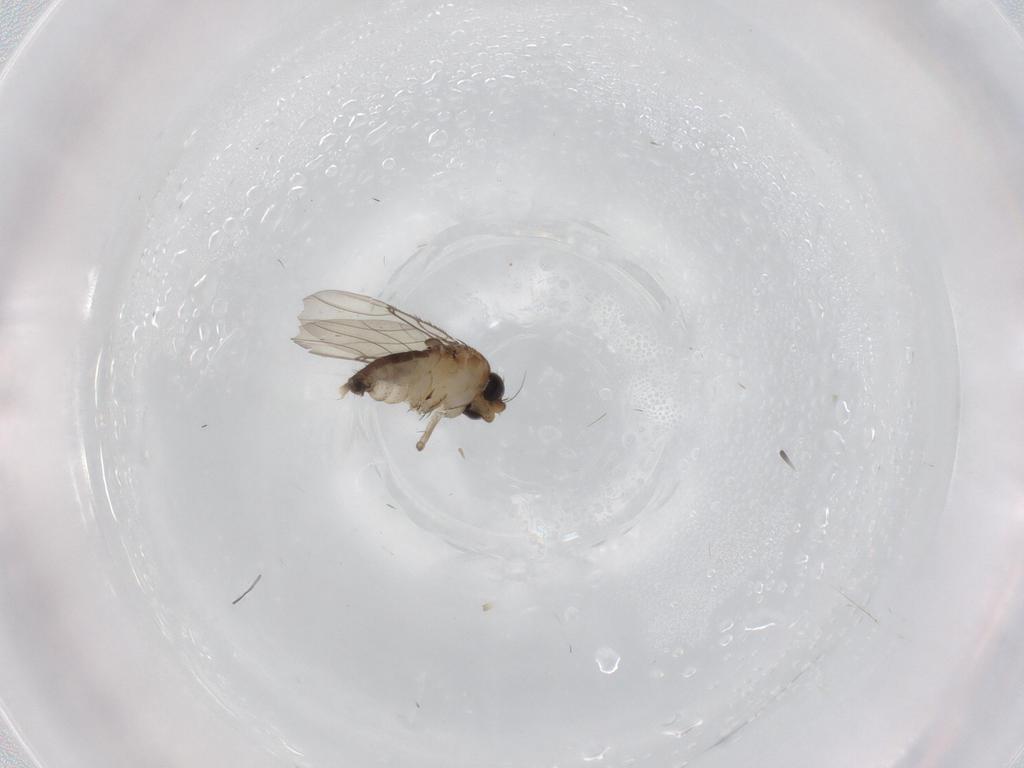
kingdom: Animalia
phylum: Arthropoda
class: Insecta
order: Diptera
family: Phoridae
